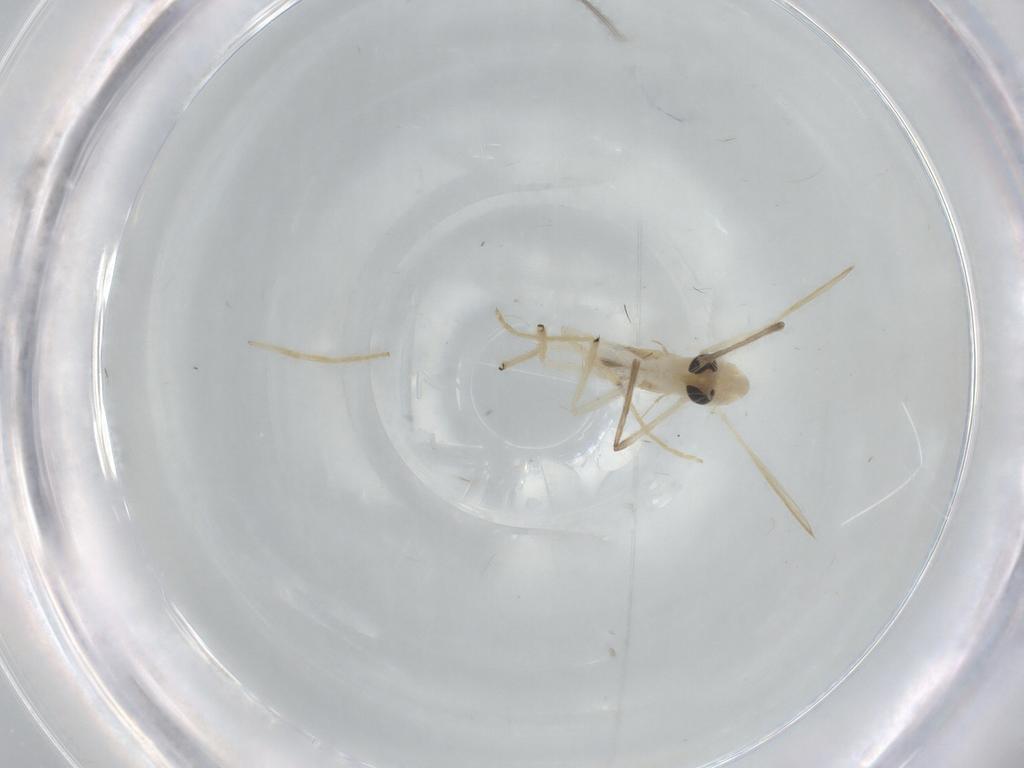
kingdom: Animalia
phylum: Arthropoda
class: Insecta
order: Diptera
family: Chironomidae
